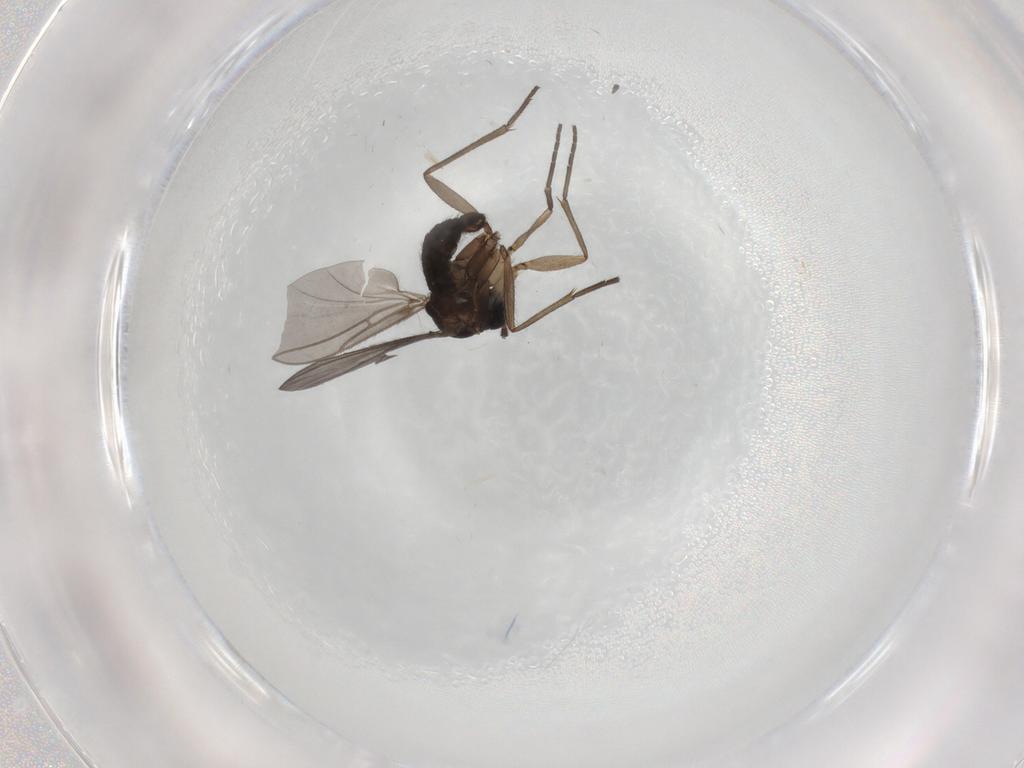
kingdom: Animalia
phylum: Arthropoda
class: Insecta
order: Diptera
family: Sciaridae
